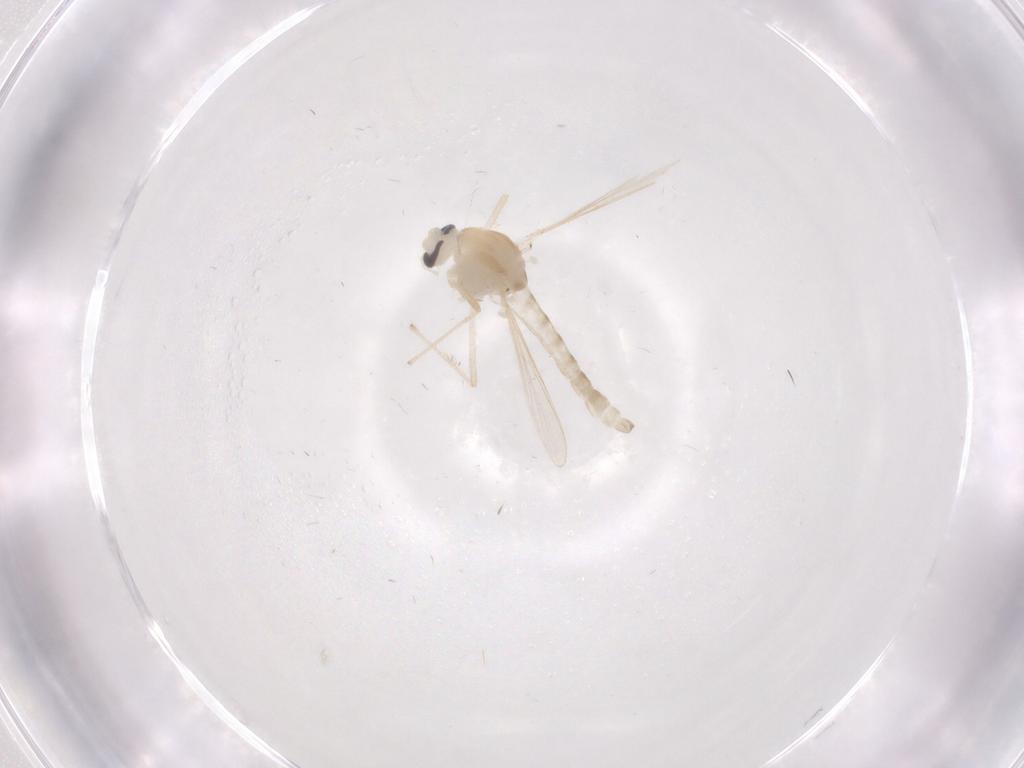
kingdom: Animalia
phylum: Arthropoda
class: Insecta
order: Diptera
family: Chironomidae
